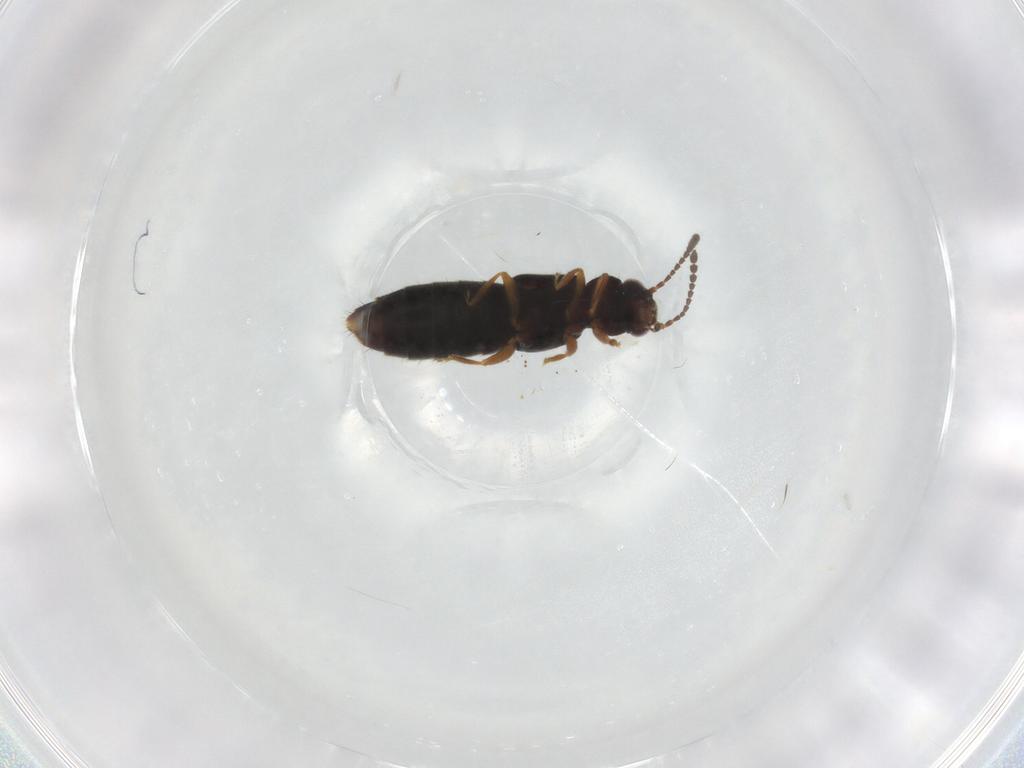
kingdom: Animalia
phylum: Arthropoda
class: Insecta
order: Coleoptera
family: Staphylinidae
